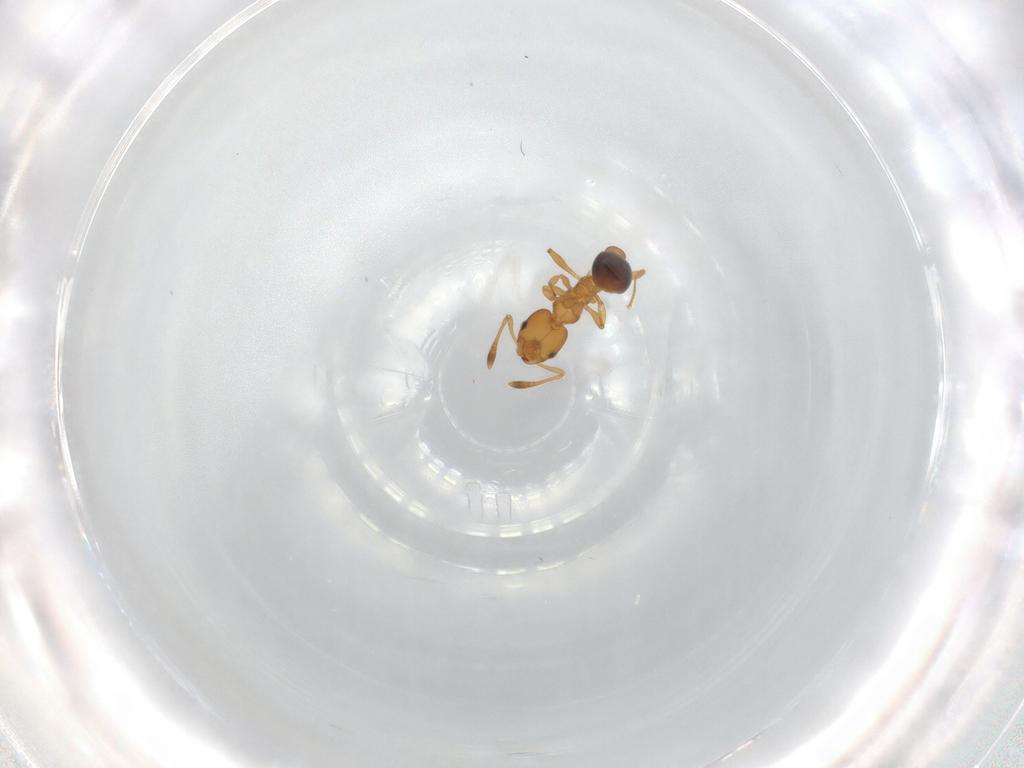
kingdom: Animalia
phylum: Arthropoda
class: Insecta
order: Hymenoptera
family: Formicidae
